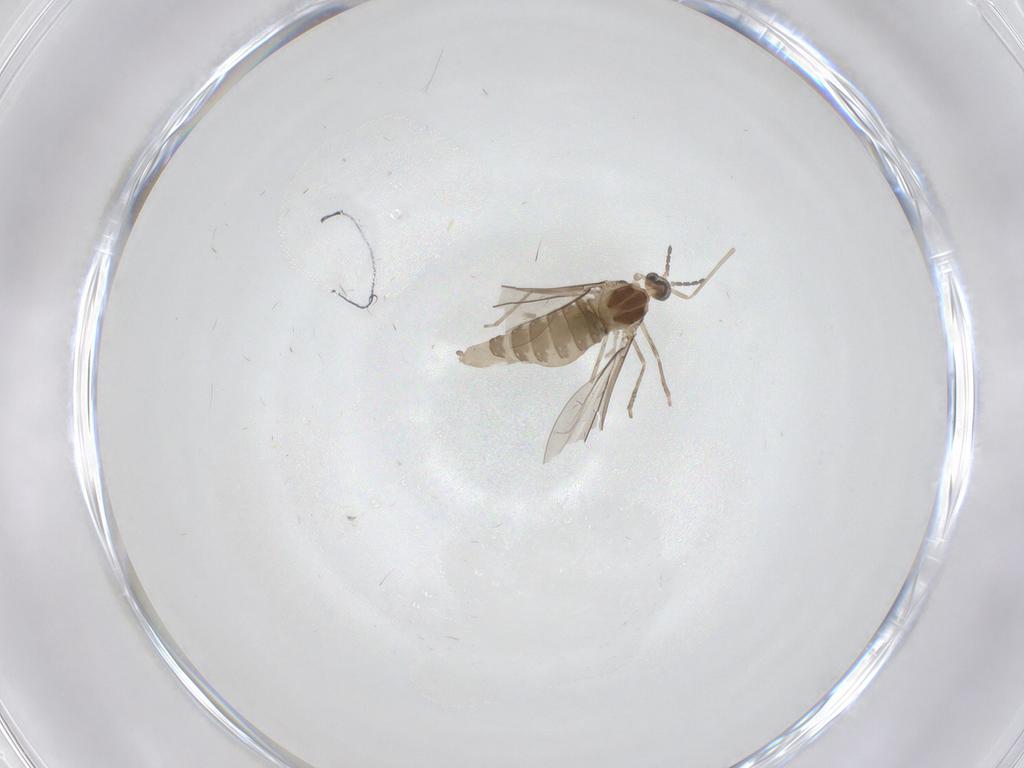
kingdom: Animalia
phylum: Arthropoda
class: Insecta
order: Diptera
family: Cecidomyiidae
